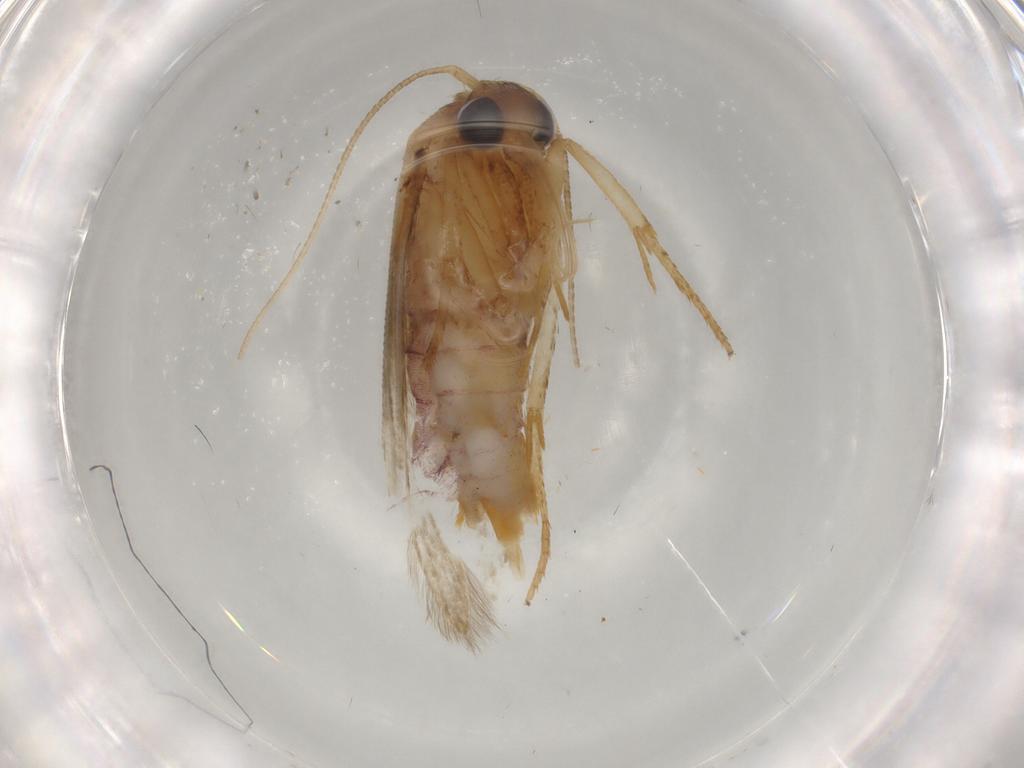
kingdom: Animalia
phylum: Arthropoda
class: Insecta
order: Lepidoptera
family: Blastobasidae
